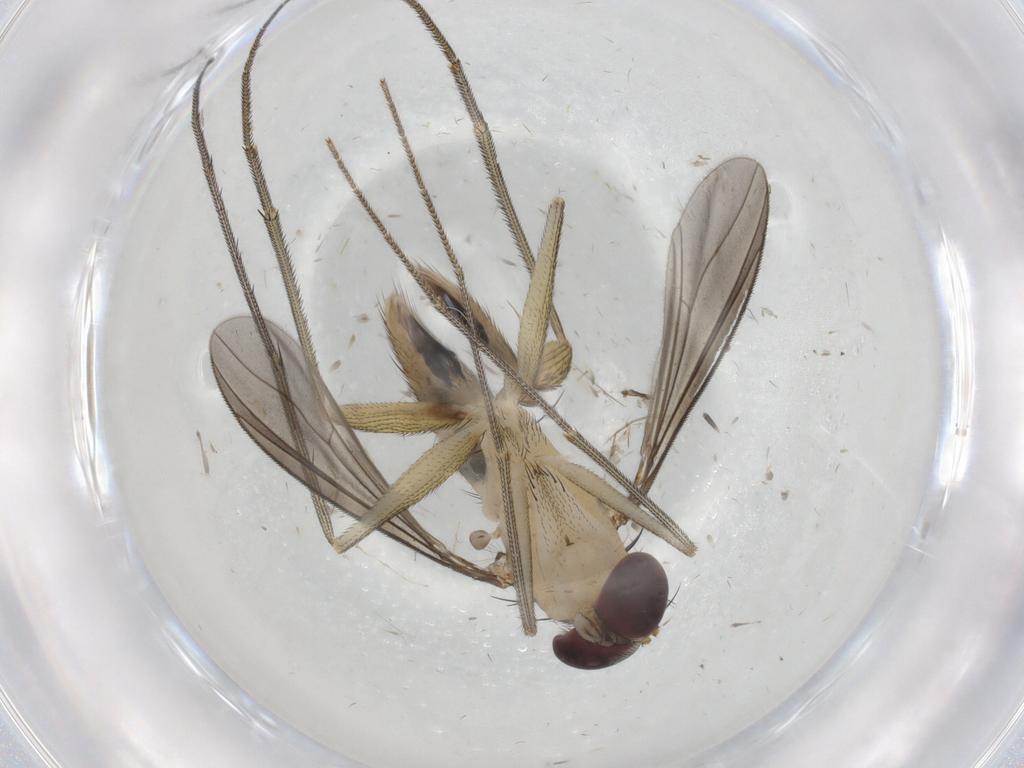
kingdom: Animalia
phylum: Arthropoda
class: Insecta
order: Diptera
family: Dolichopodidae
